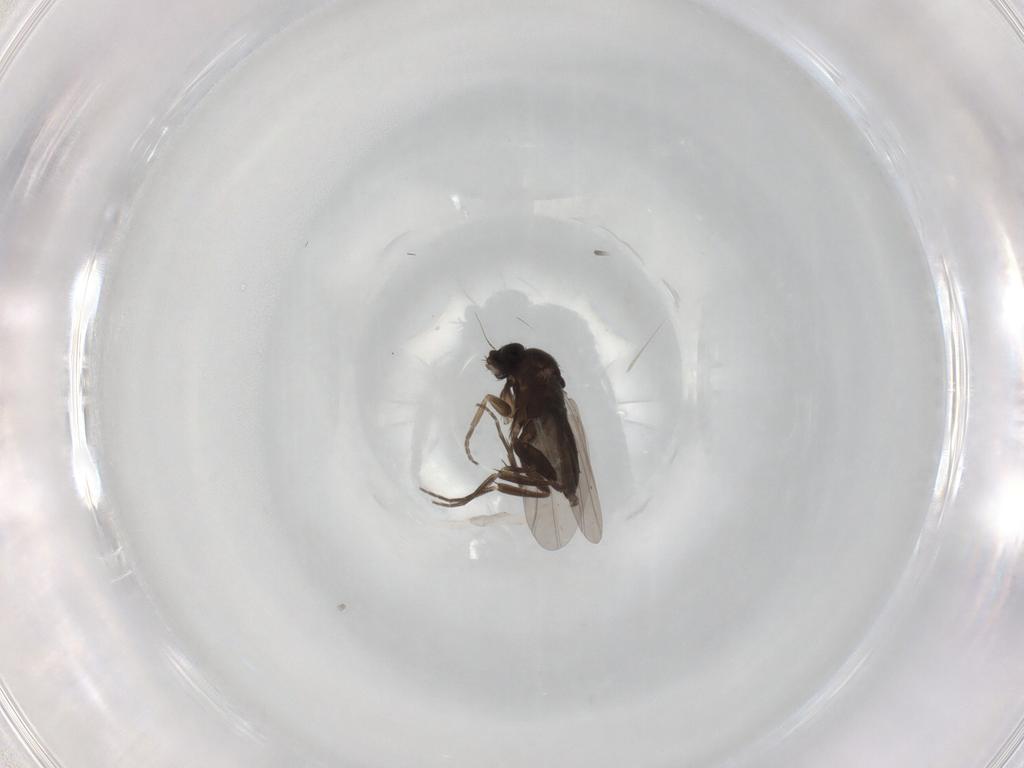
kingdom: Animalia
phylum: Arthropoda
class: Insecta
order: Diptera
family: Phoridae
